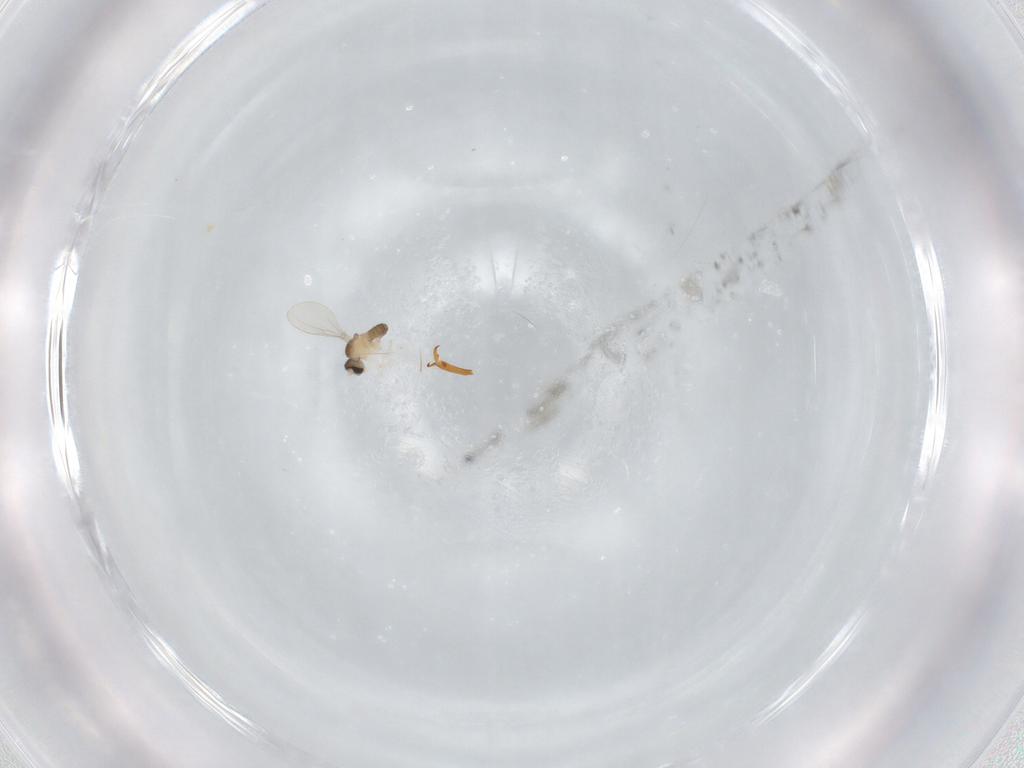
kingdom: Animalia
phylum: Arthropoda
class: Insecta
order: Diptera
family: Cecidomyiidae
